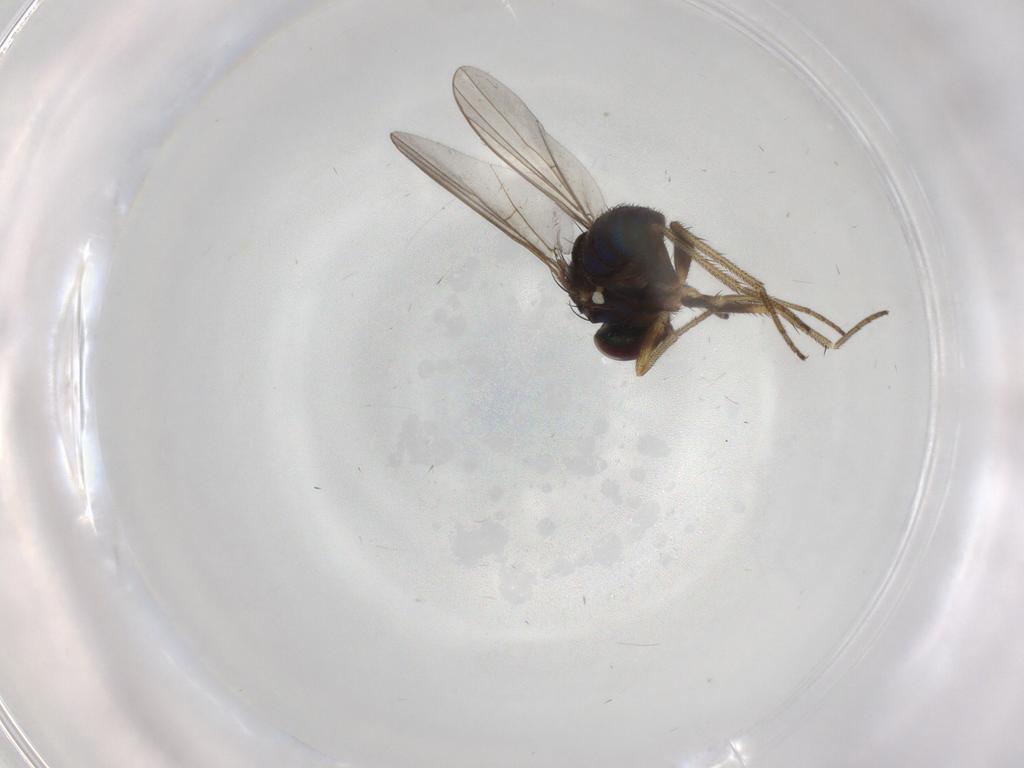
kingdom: Animalia
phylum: Arthropoda
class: Insecta
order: Diptera
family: Dolichopodidae
